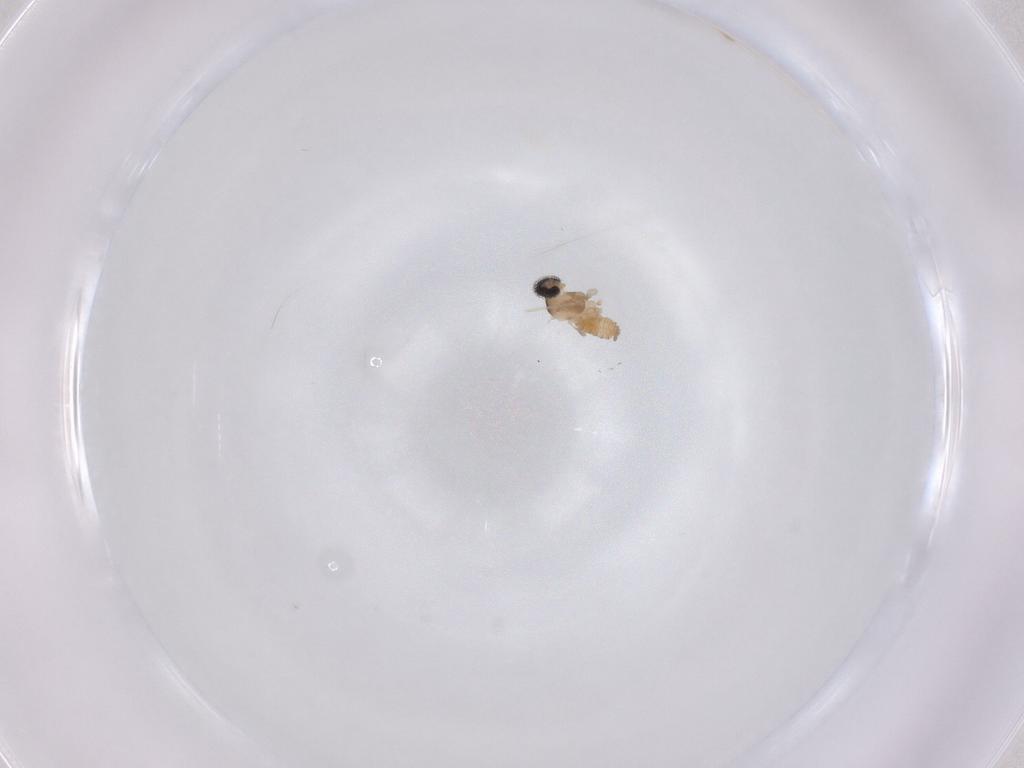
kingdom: Animalia
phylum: Arthropoda
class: Insecta
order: Diptera
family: Cecidomyiidae
